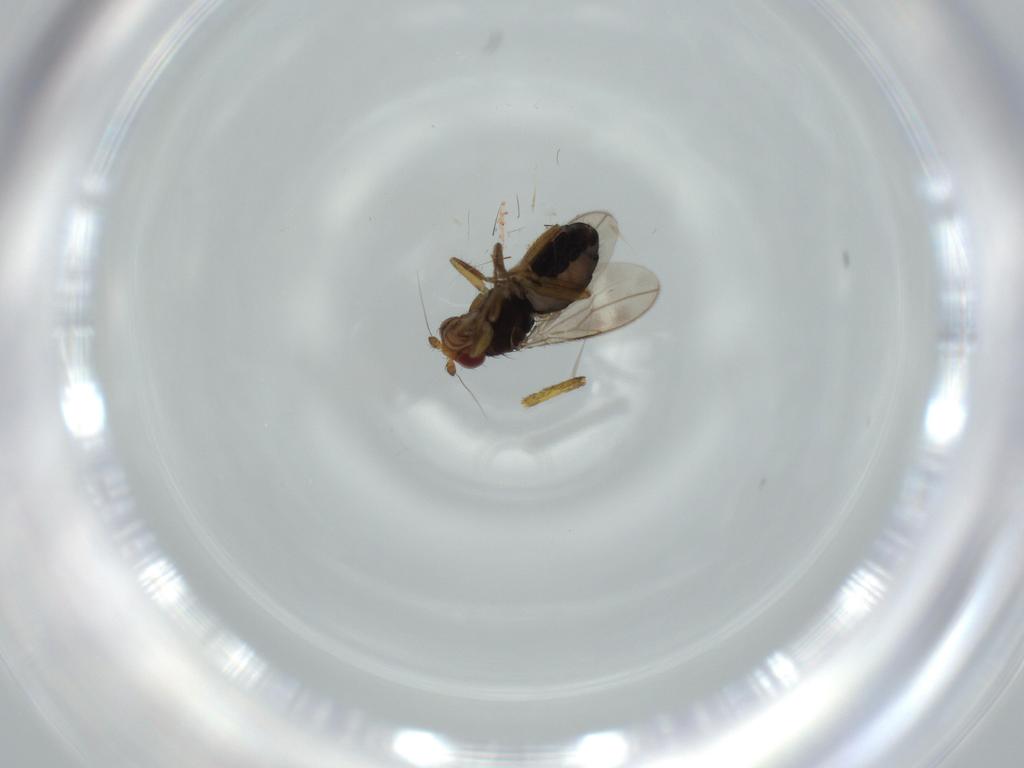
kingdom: Animalia
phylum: Arthropoda
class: Insecta
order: Diptera
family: Sphaeroceridae
